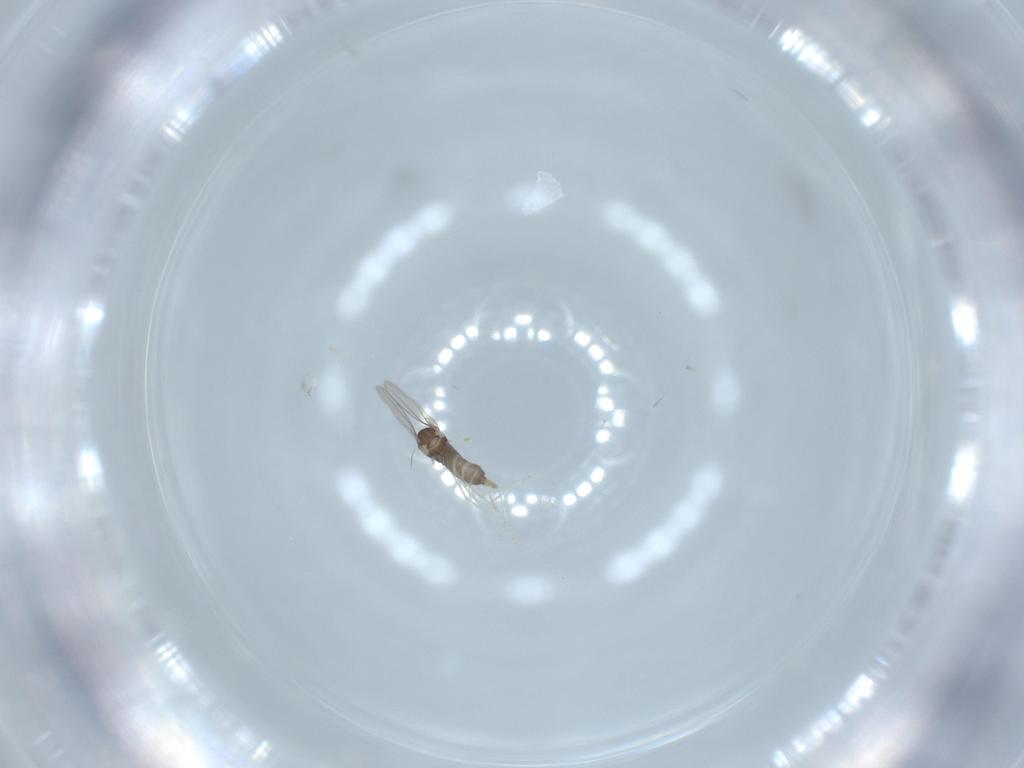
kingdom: Animalia
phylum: Arthropoda
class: Insecta
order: Diptera
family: Cecidomyiidae
